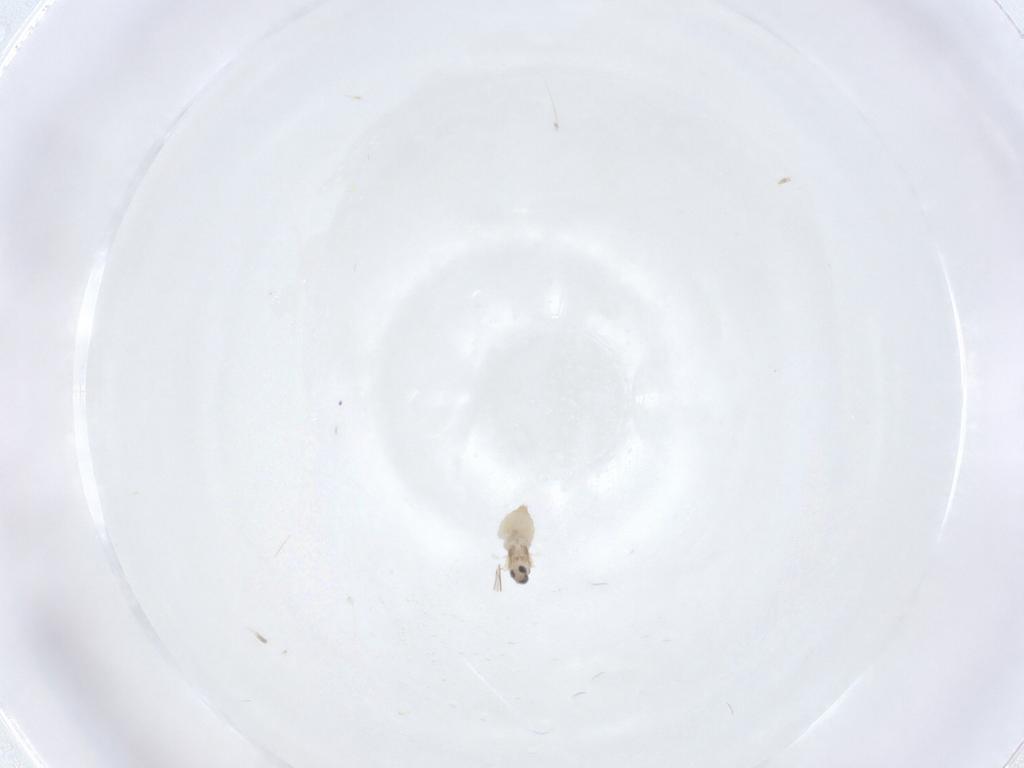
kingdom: Animalia
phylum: Arthropoda
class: Insecta
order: Diptera
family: Cecidomyiidae
